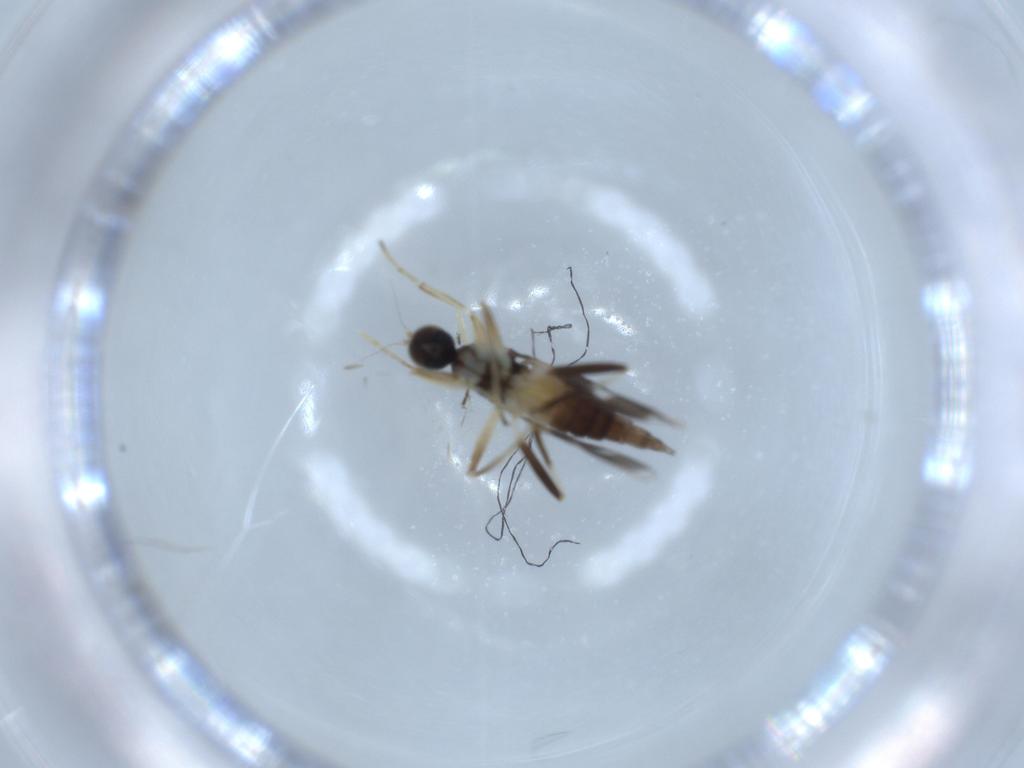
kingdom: Animalia
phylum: Arthropoda
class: Insecta
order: Diptera
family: Hybotidae
